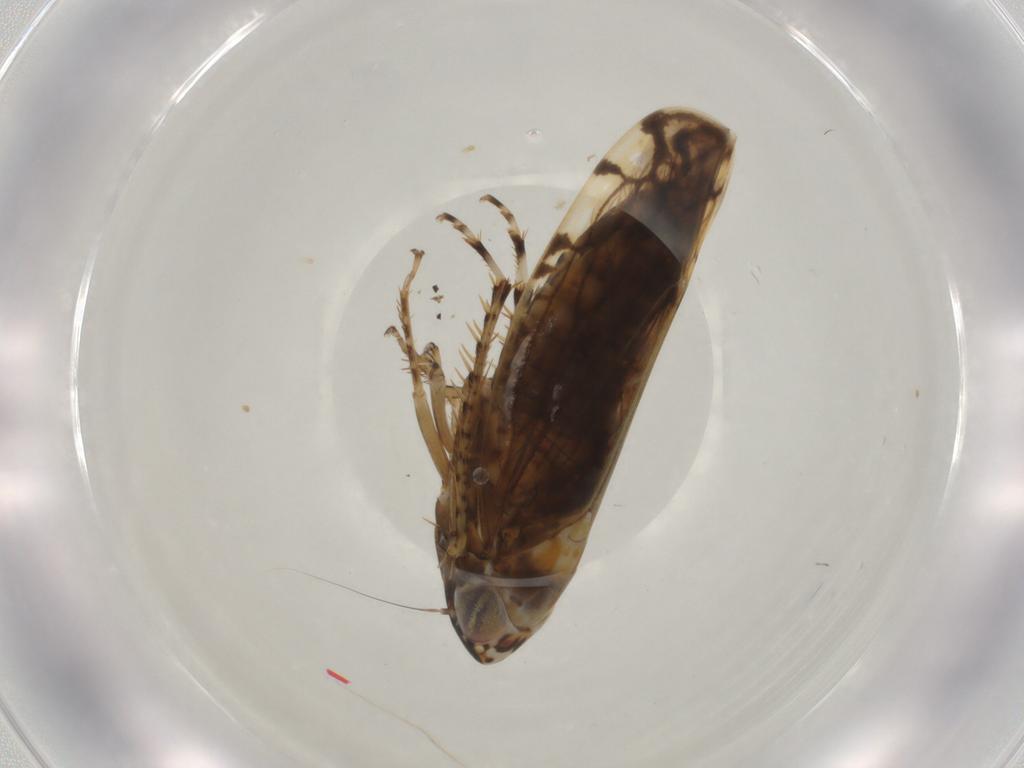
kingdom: Animalia
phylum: Arthropoda
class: Insecta
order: Hemiptera
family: Cicadellidae
